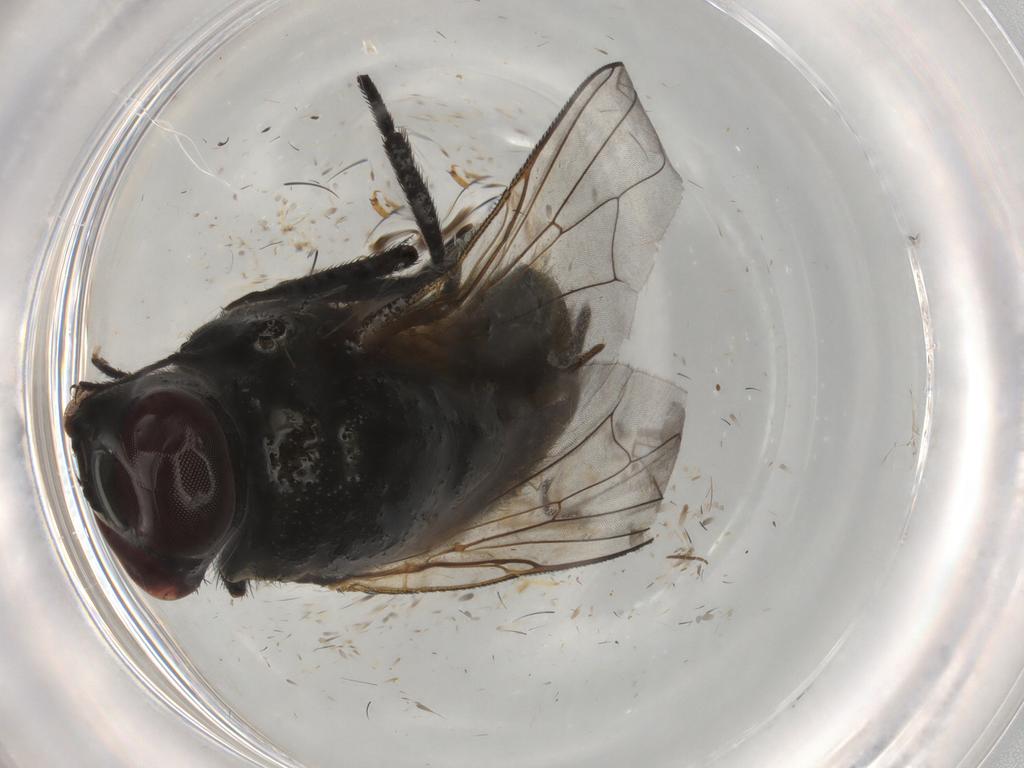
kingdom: Animalia
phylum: Arthropoda
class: Insecta
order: Diptera
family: Muscidae
